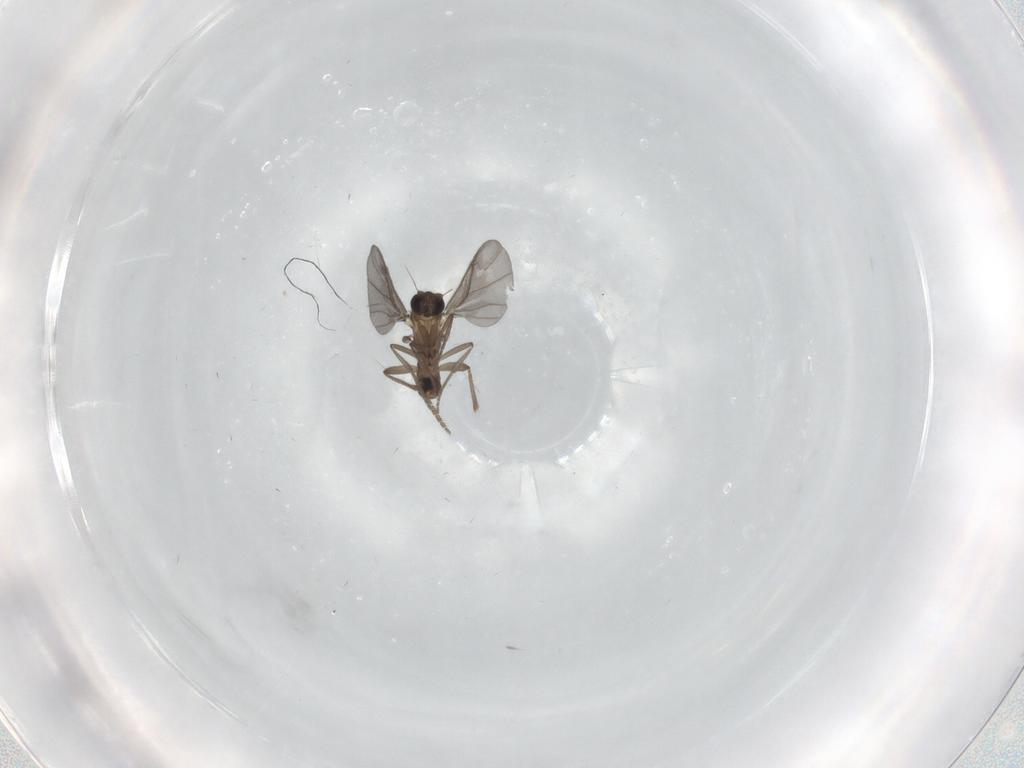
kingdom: Animalia
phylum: Arthropoda
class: Insecta
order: Diptera
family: Phoridae
